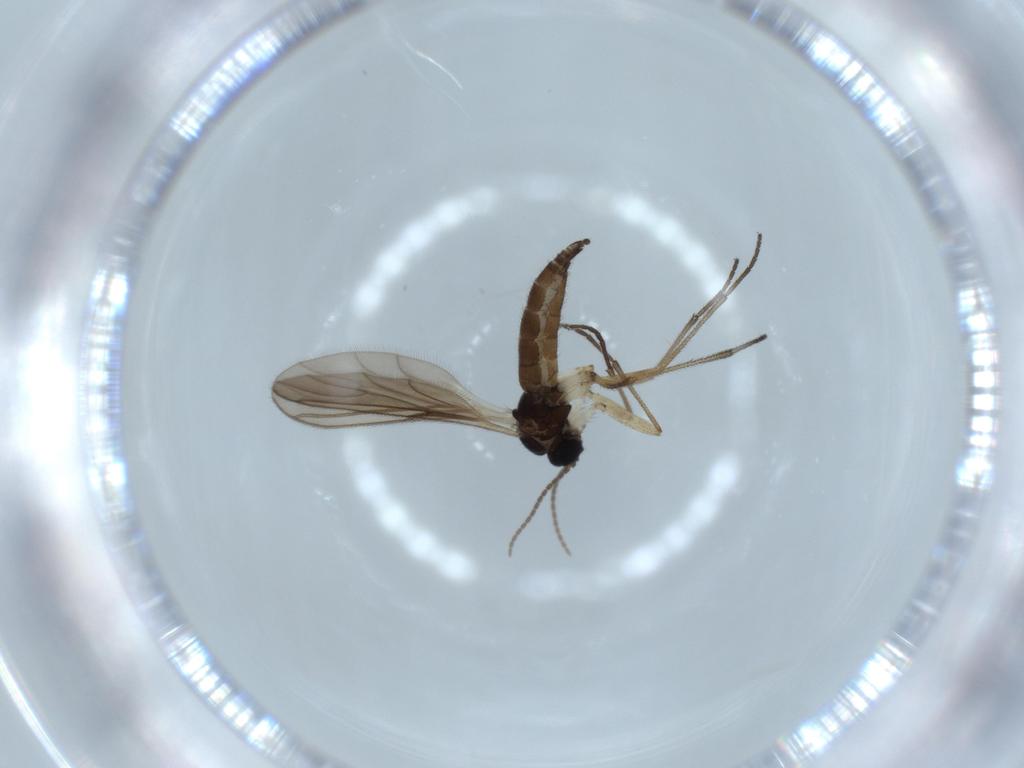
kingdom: Animalia
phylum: Arthropoda
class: Insecta
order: Diptera
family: Sciaridae
